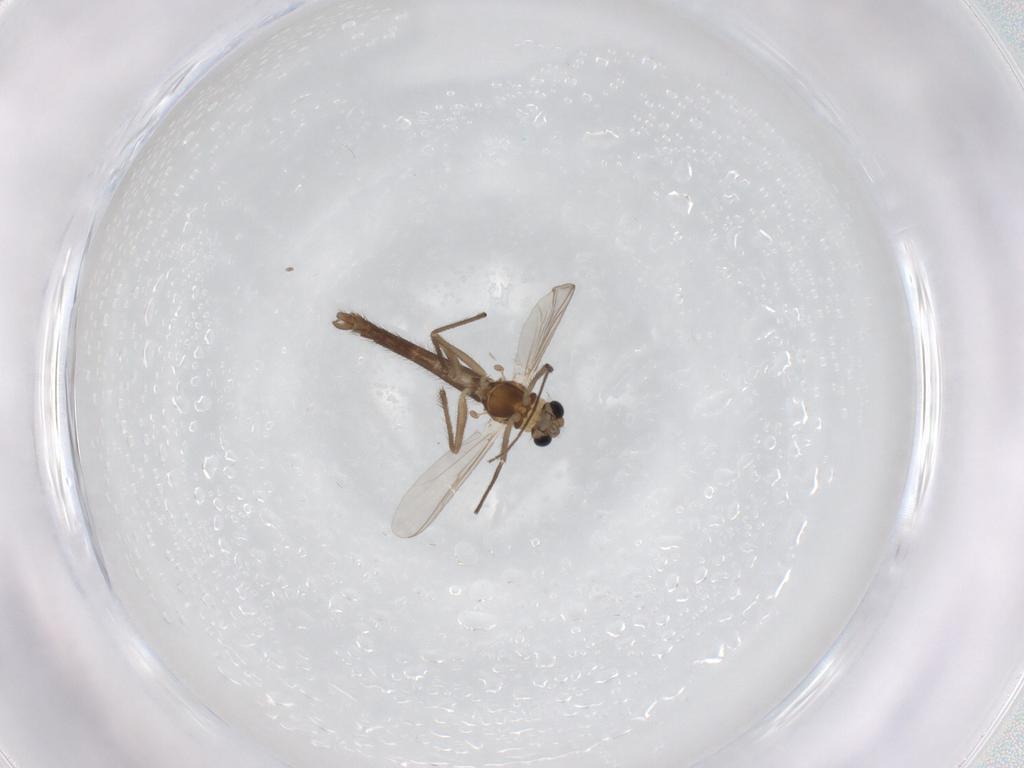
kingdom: Animalia
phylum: Arthropoda
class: Insecta
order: Diptera
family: Chironomidae
